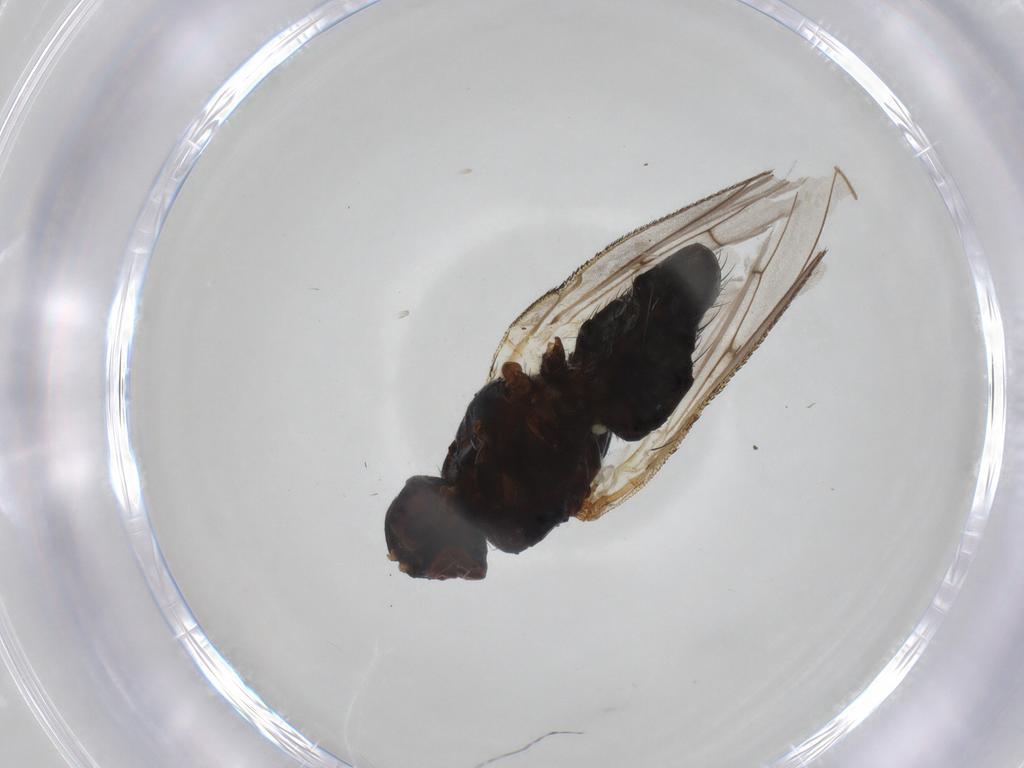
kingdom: Animalia
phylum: Arthropoda
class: Insecta
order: Diptera
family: Anthomyiidae
